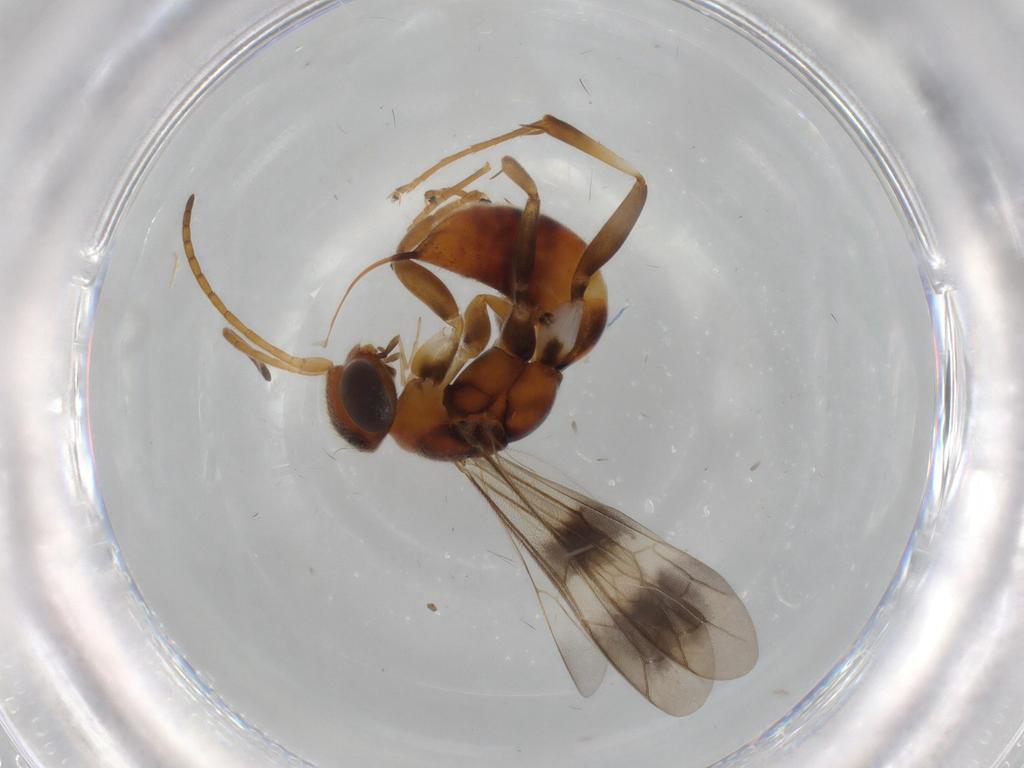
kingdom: Animalia
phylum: Arthropoda
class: Insecta
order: Hymenoptera
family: Pompilidae
